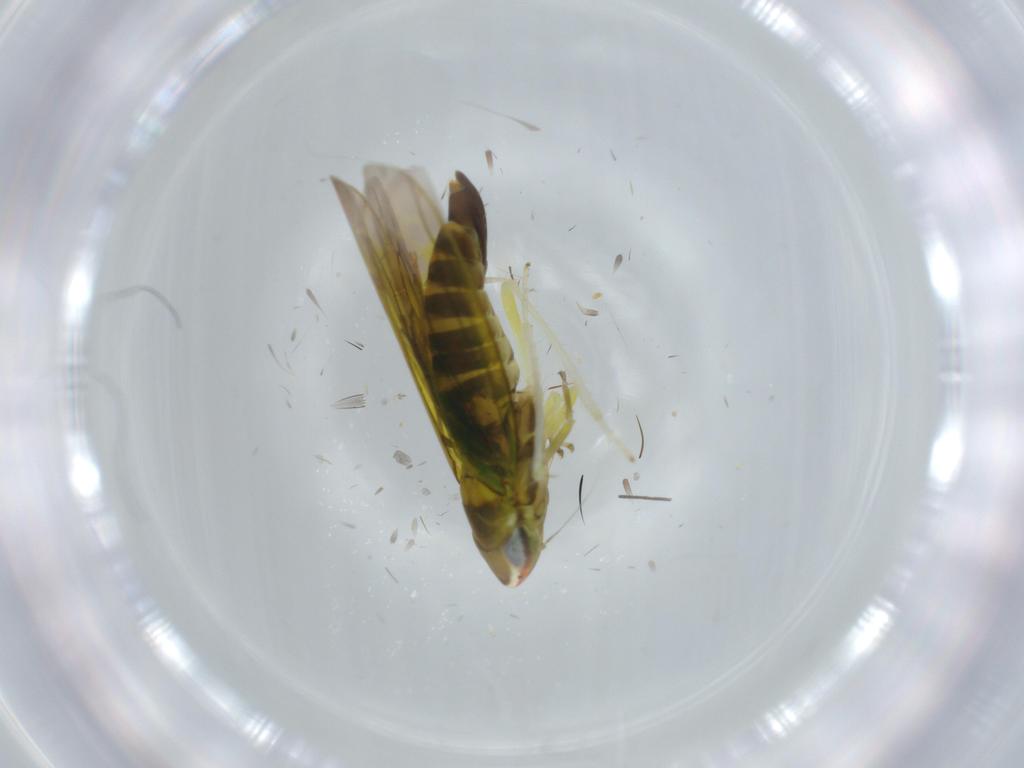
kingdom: Animalia
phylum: Arthropoda
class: Insecta
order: Hemiptera
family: Cicadellidae
